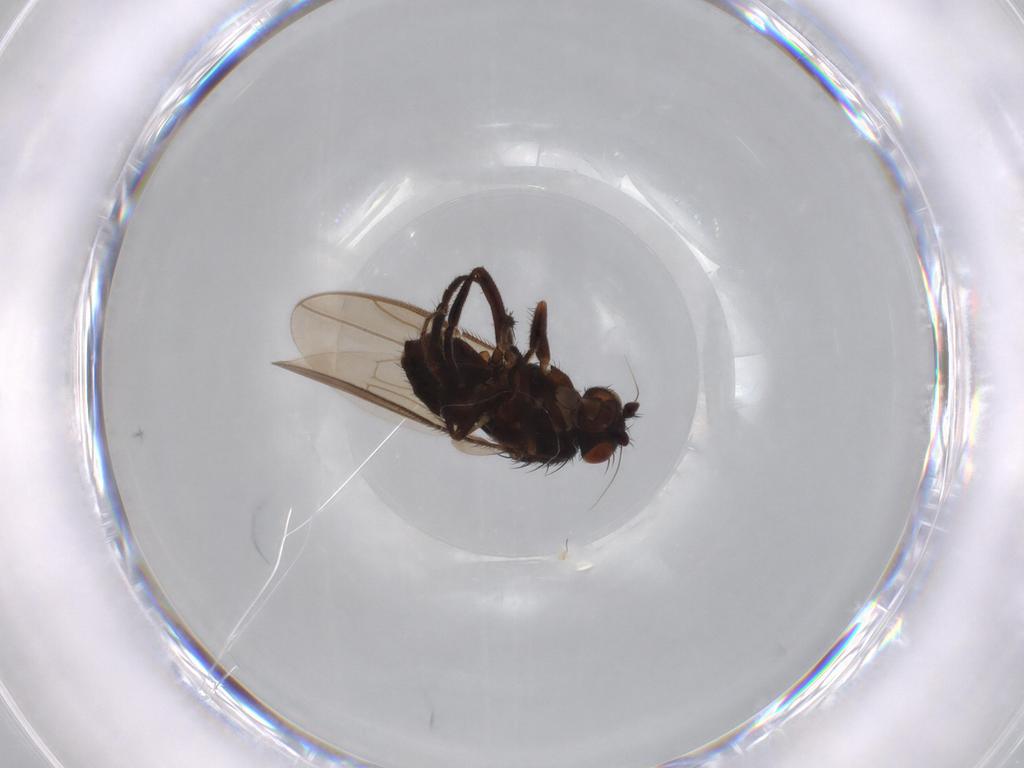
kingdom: Animalia
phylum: Arthropoda
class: Insecta
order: Diptera
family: Sphaeroceridae
